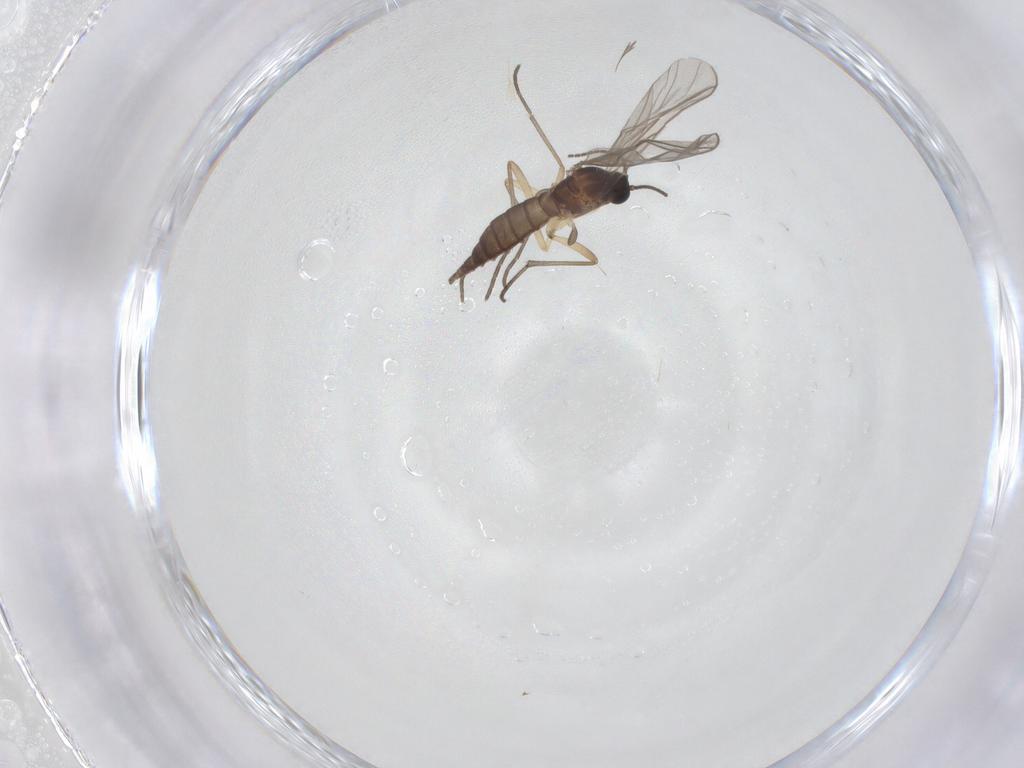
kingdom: Animalia
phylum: Arthropoda
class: Insecta
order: Diptera
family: Sciaridae
